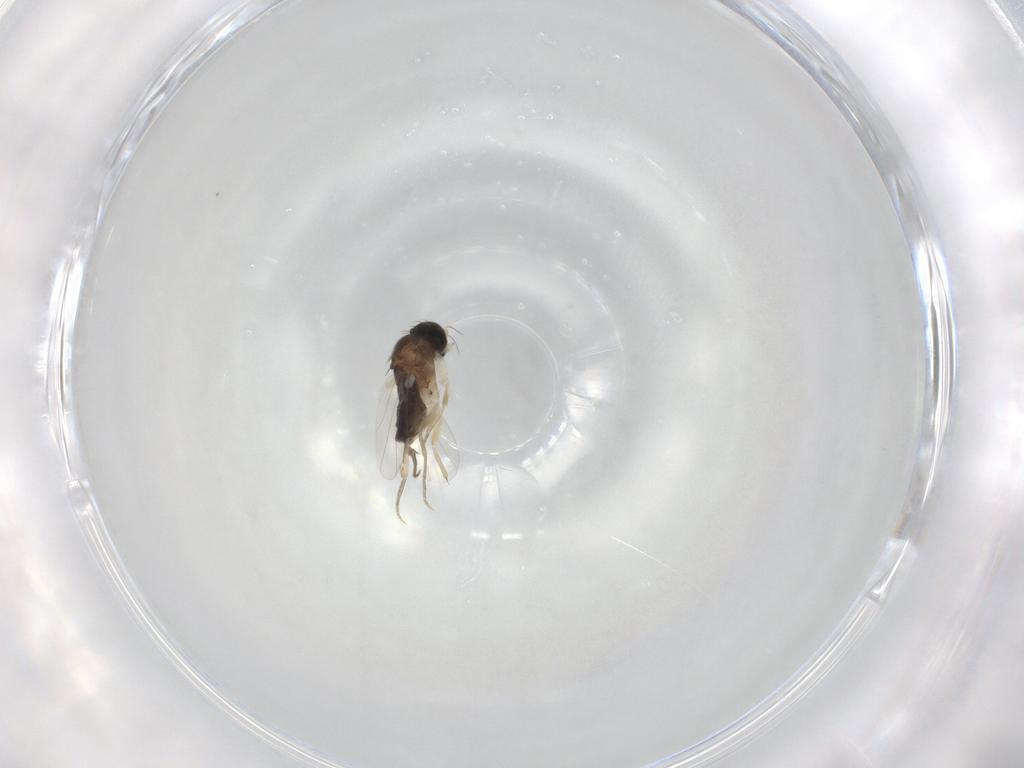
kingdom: Animalia
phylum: Arthropoda
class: Insecta
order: Diptera
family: Phoridae
